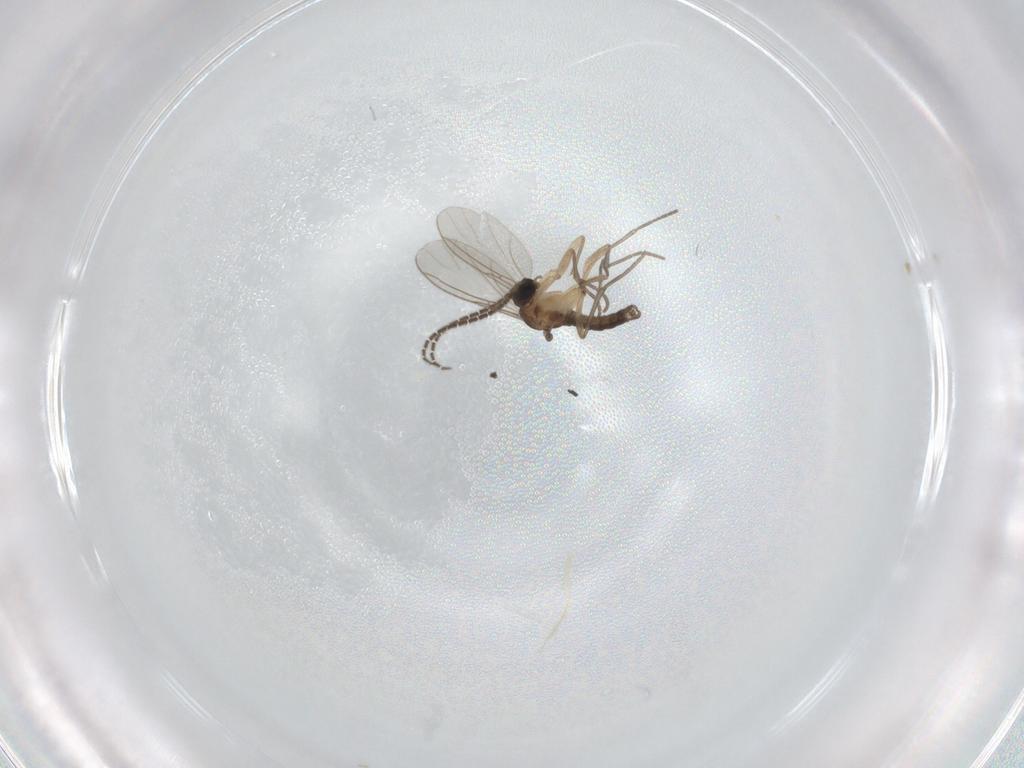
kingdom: Animalia
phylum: Arthropoda
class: Insecta
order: Diptera
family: Sciaridae
